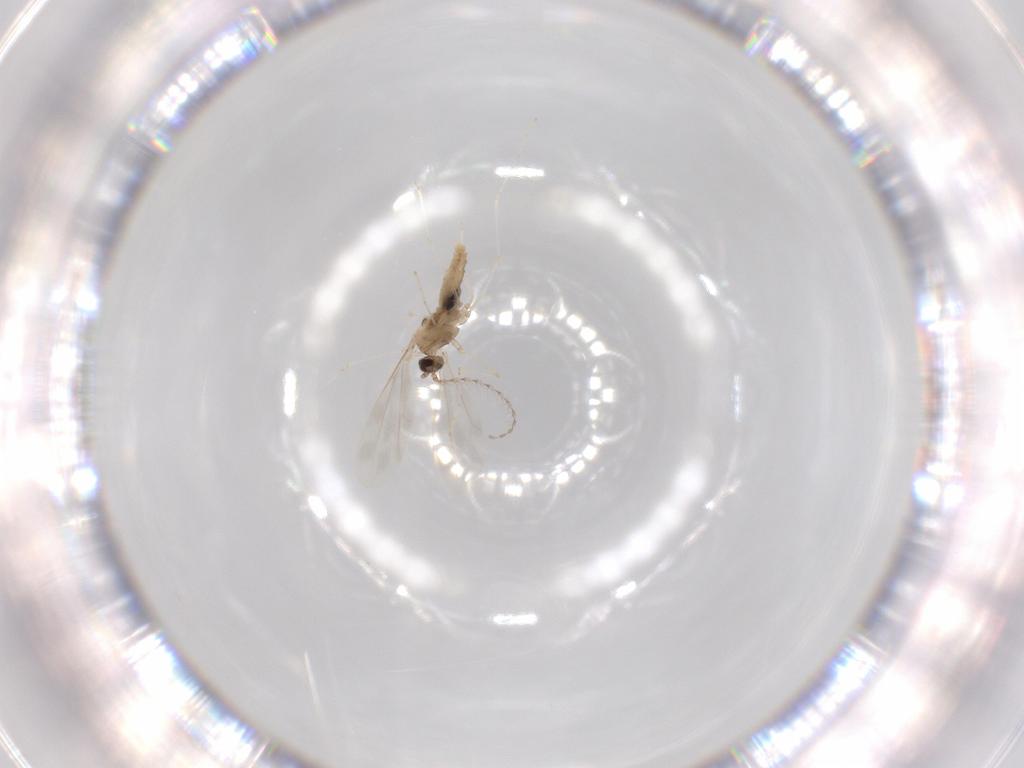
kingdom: Animalia
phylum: Arthropoda
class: Insecta
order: Diptera
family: Cecidomyiidae
